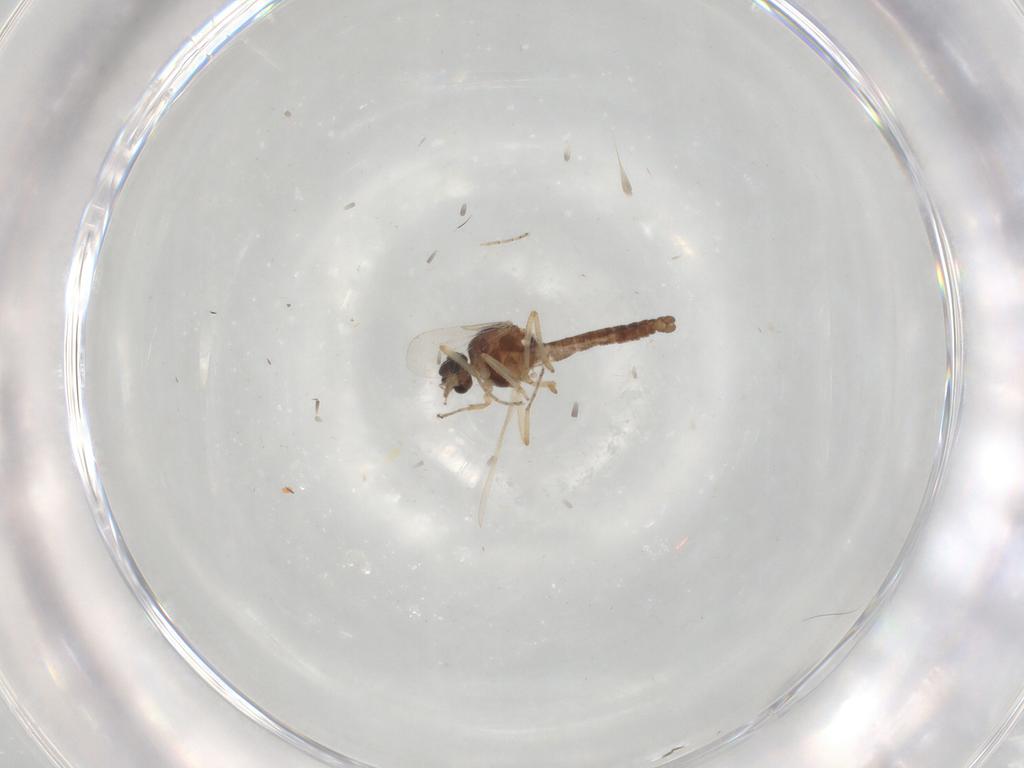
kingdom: Animalia
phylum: Arthropoda
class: Insecta
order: Diptera
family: Ceratopogonidae
